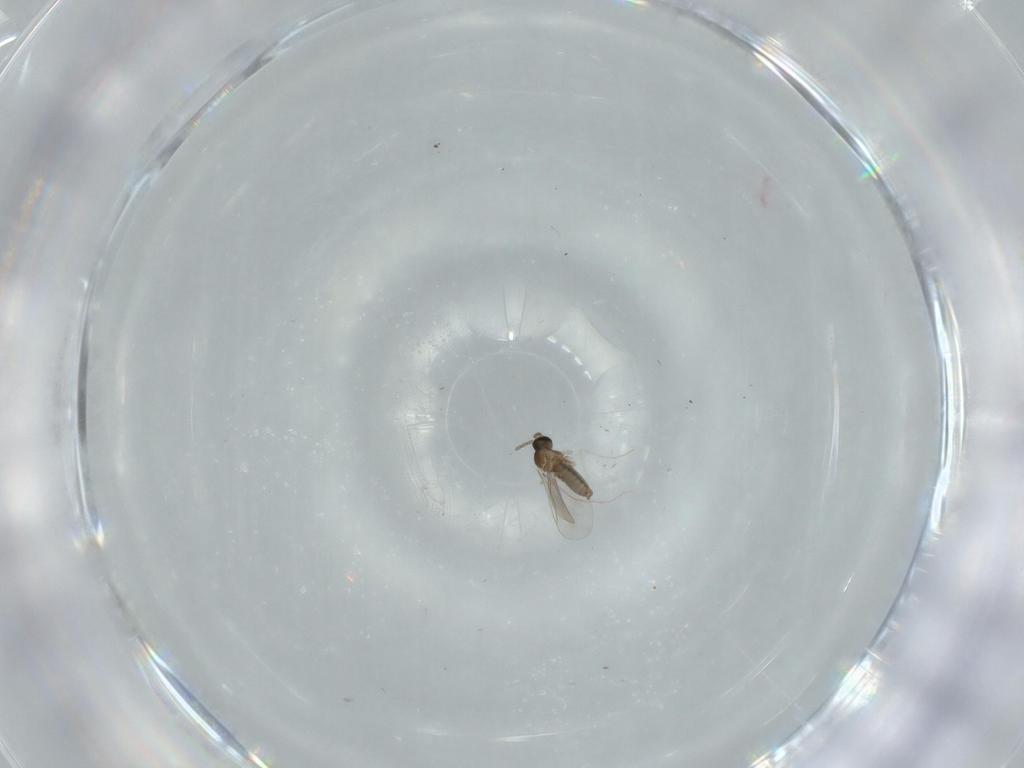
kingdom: Animalia
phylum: Arthropoda
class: Insecta
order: Diptera
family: Cecidomyiidae
